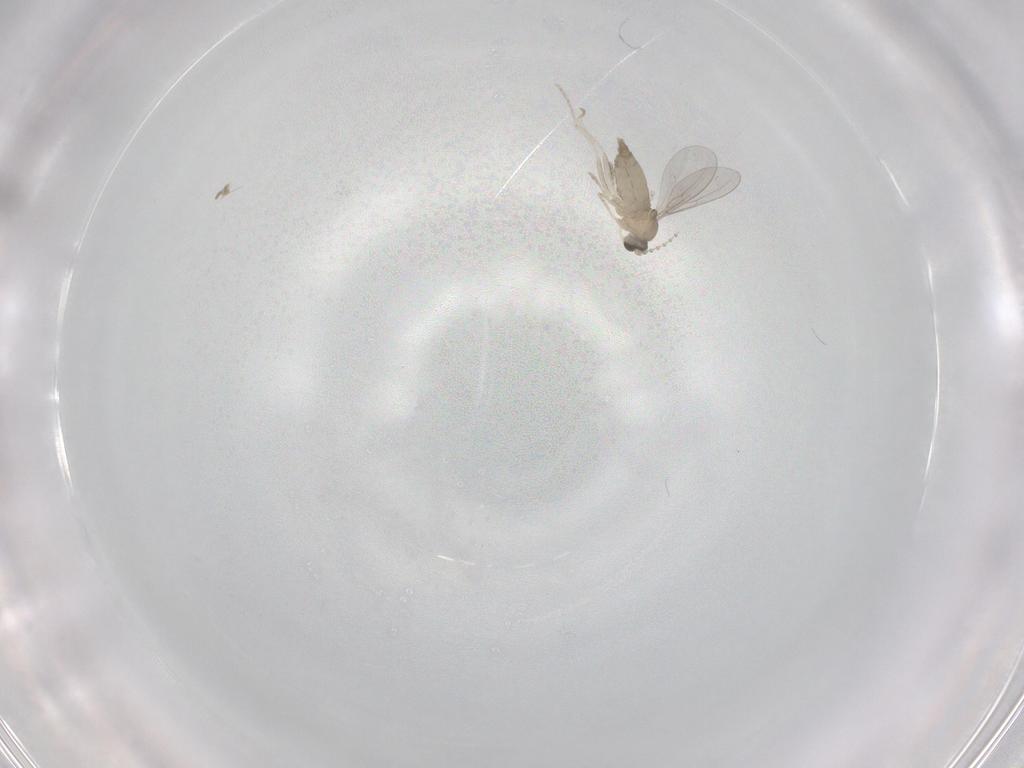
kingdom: Animalia
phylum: Arthropoda
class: Insecta
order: Diptera
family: Cecidomyiidae
